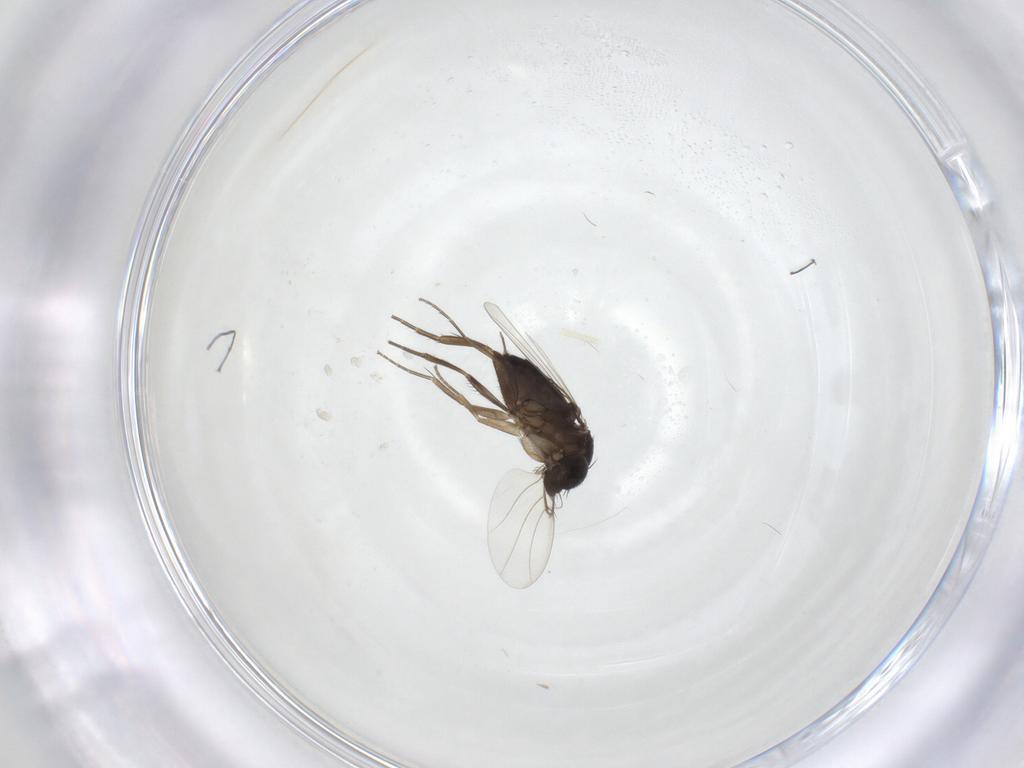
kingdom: Animalia
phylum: Arthropoda
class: Insecta
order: Diptera
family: Phoridae
